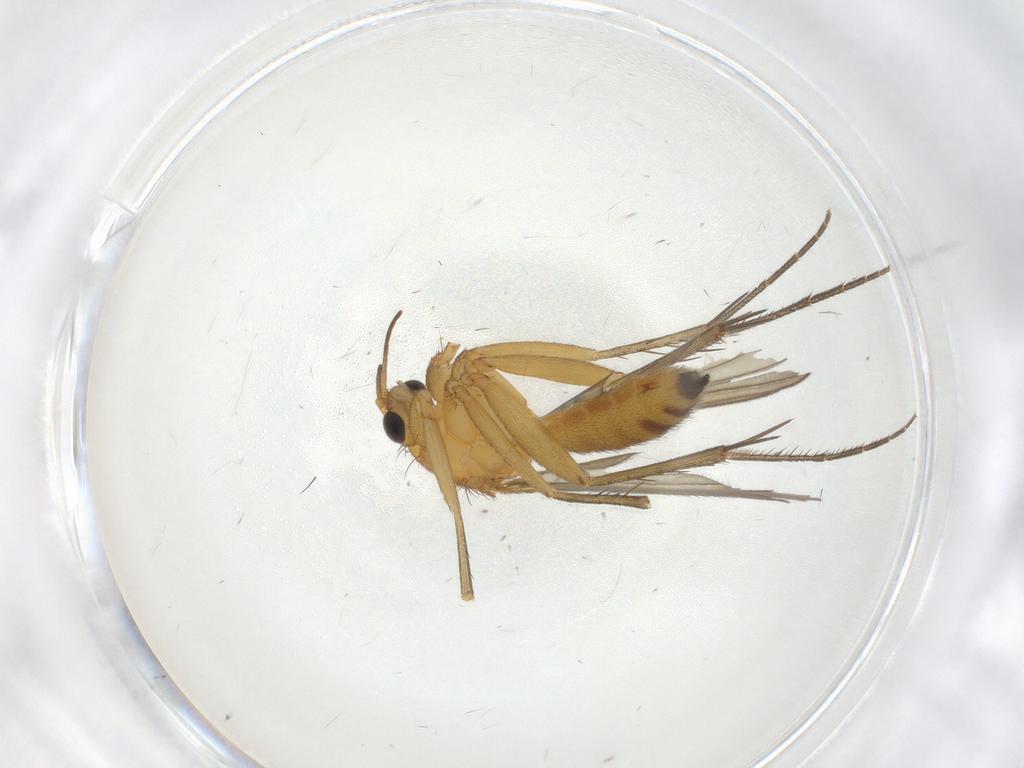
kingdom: Animalia
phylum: Arthropoda
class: Insecta
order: Diptera
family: Mycetophilidae
